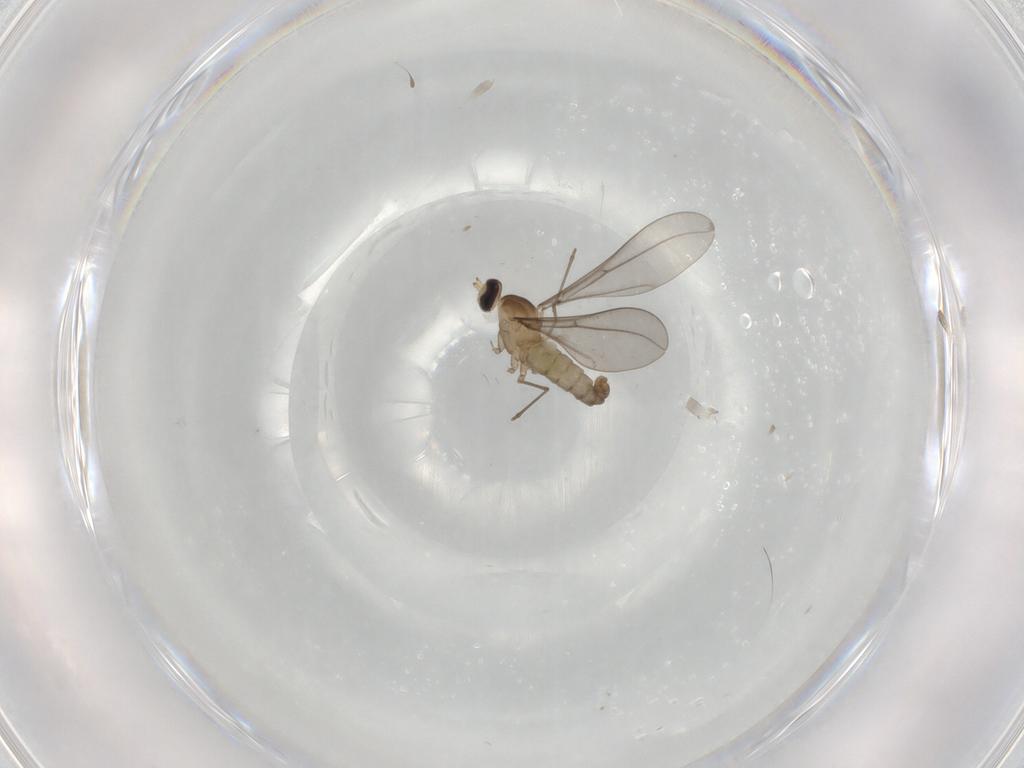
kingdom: Animalia
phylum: Arthropoda
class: Insecta
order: Diptera
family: Cecidomyiidae
